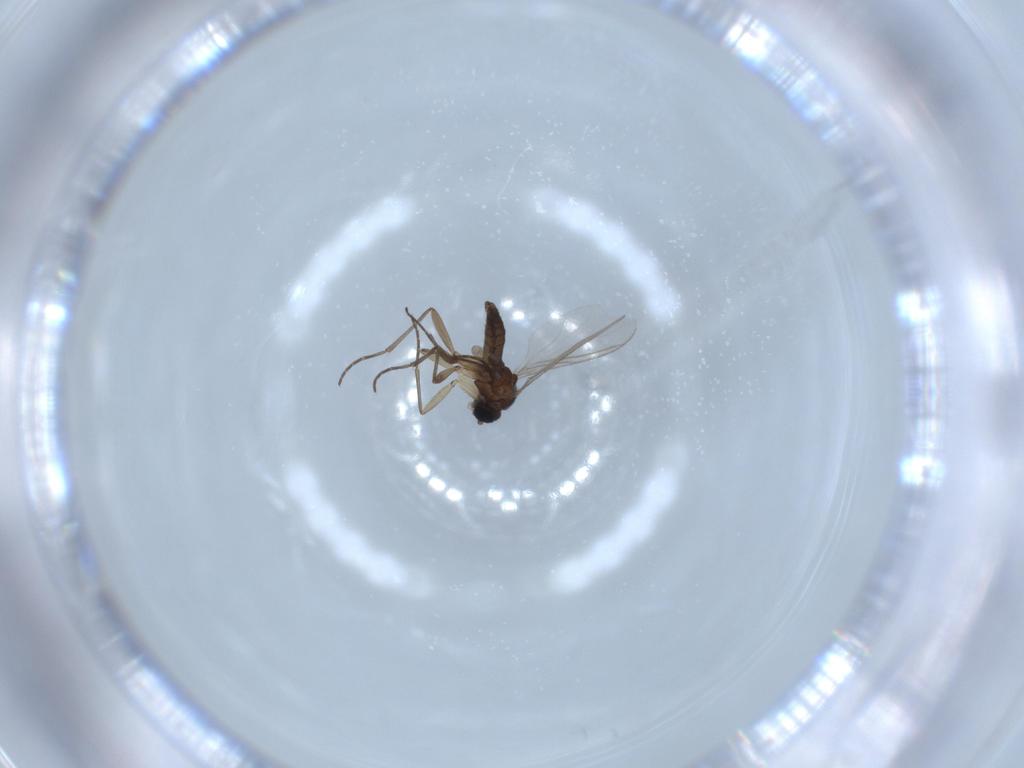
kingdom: Animalia
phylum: Arthropoda
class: Insecta
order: Diptera
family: Sciaridae
